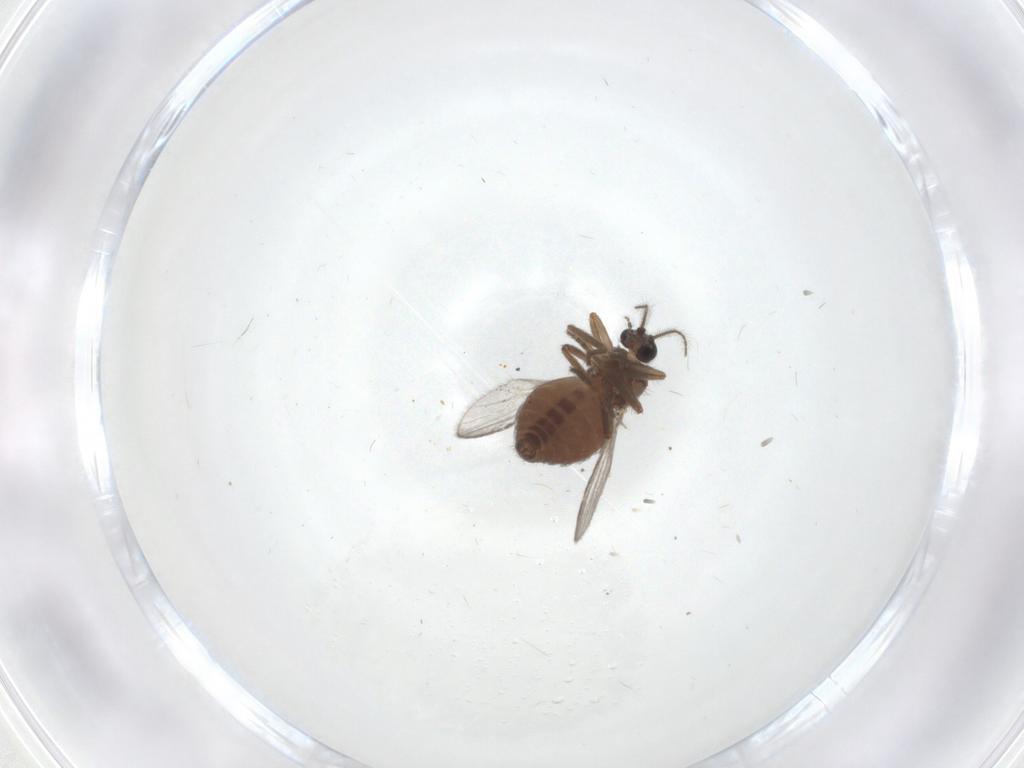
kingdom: Animalia
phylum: Arthropoda
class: Insecta
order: Diptera
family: Ceratopogonidae
